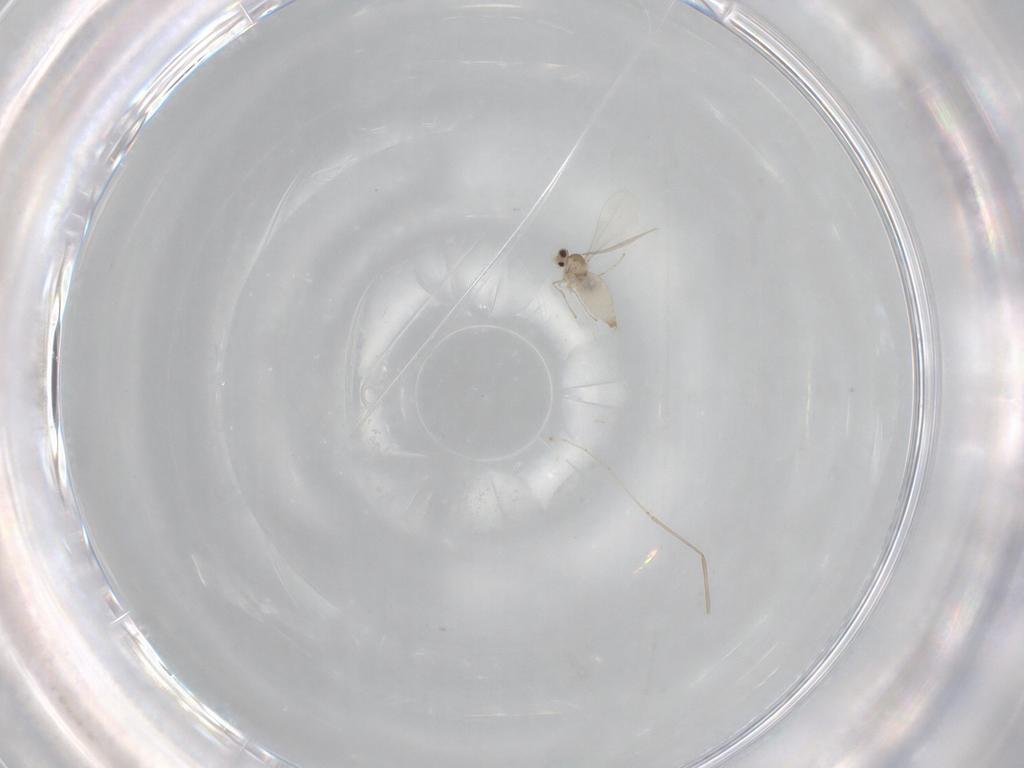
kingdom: Animalia
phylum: Arthropoda
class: Insecta
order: Diptera
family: Cecidomyiidae
